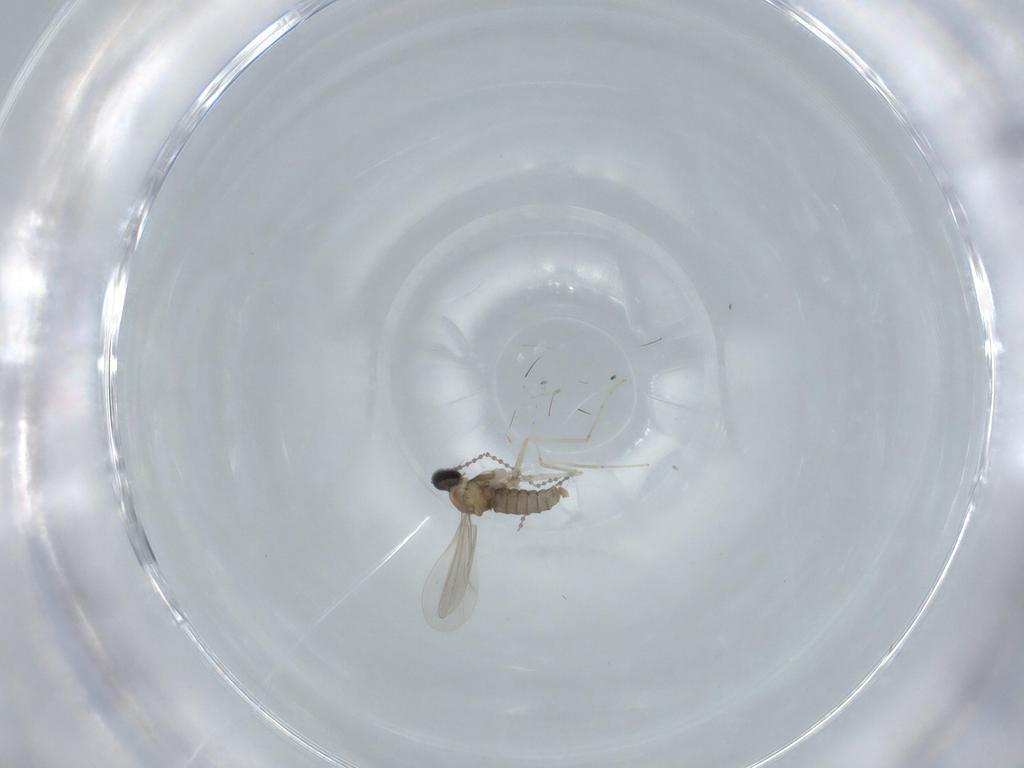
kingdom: Animalia
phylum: Arthropoda
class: Insecta
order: Diptera
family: Cecidomyiidae
